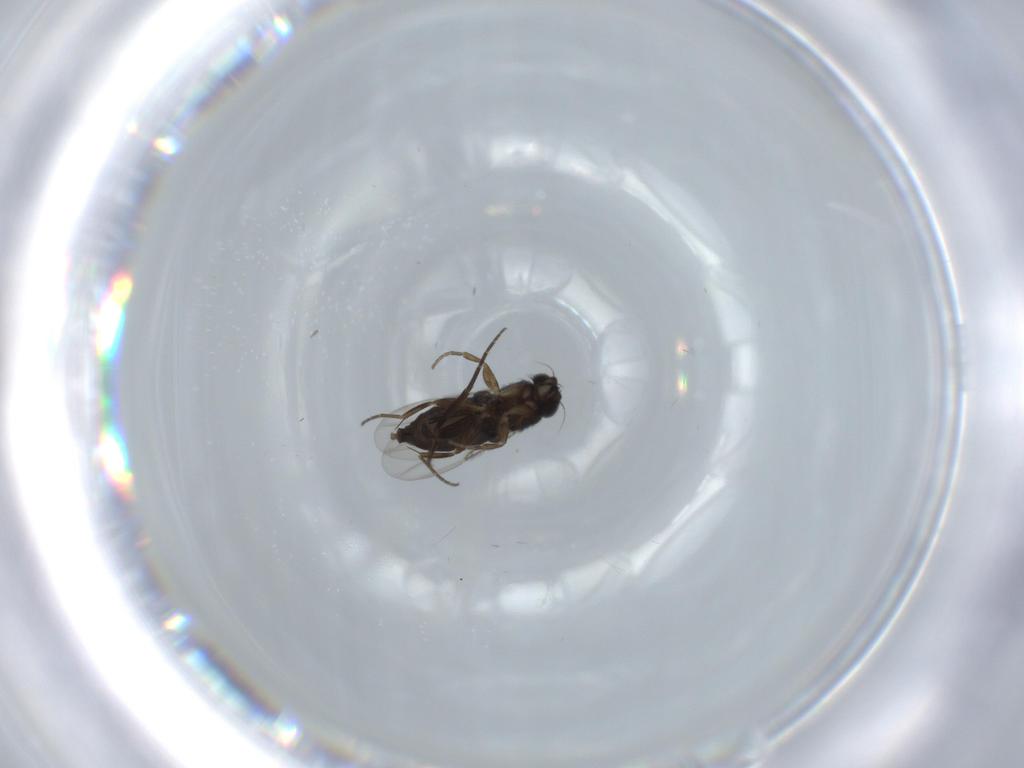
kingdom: Animalia
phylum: Arthropoda
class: Insecta
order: Diptera
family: Phoridae
